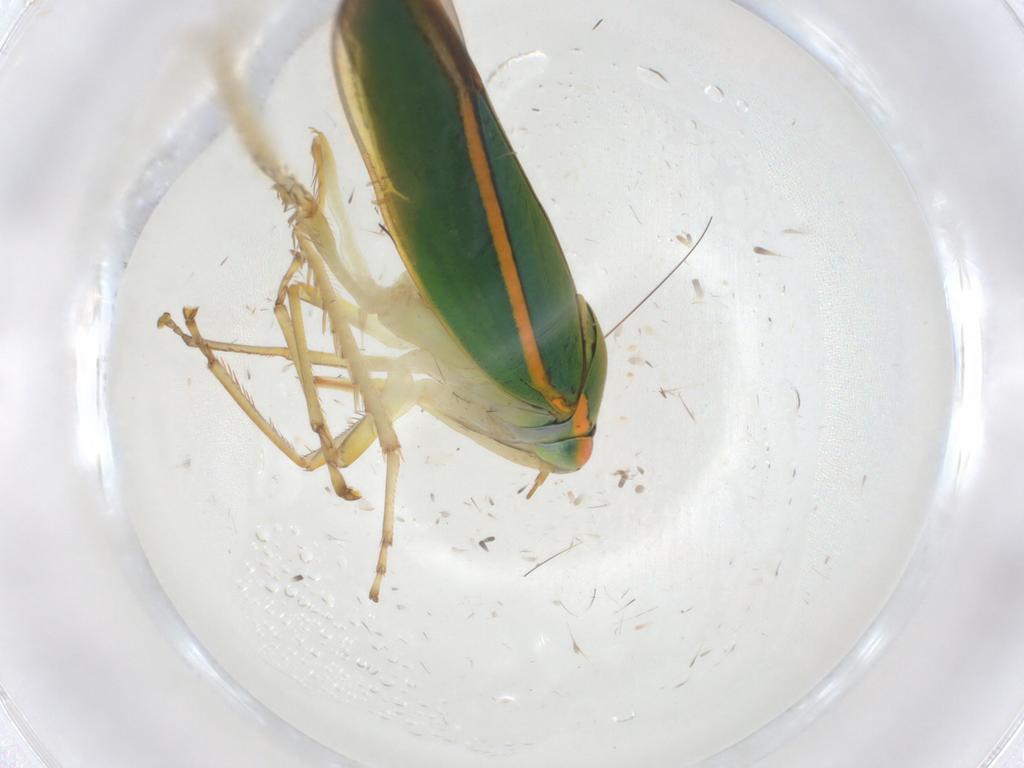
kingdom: Animalia
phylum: Arthropoda
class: Insecta
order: Hemiptera
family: Cicadellidae
